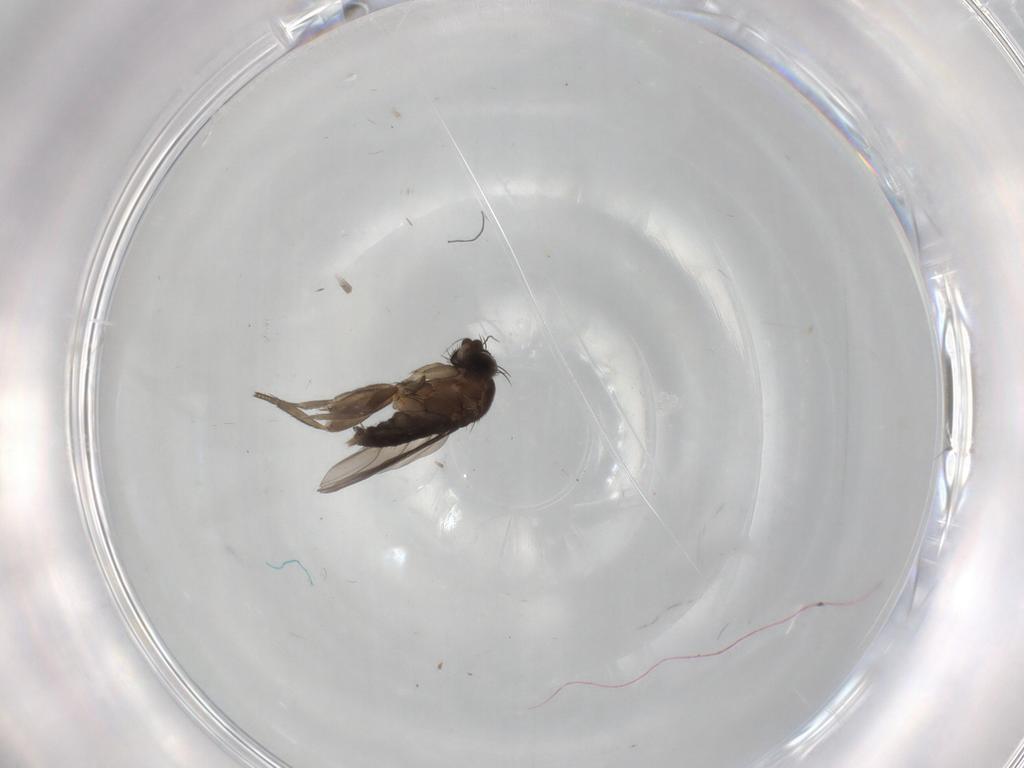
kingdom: Animalia
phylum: Arthropoda
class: Insecta
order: Diptera
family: Phoridae
